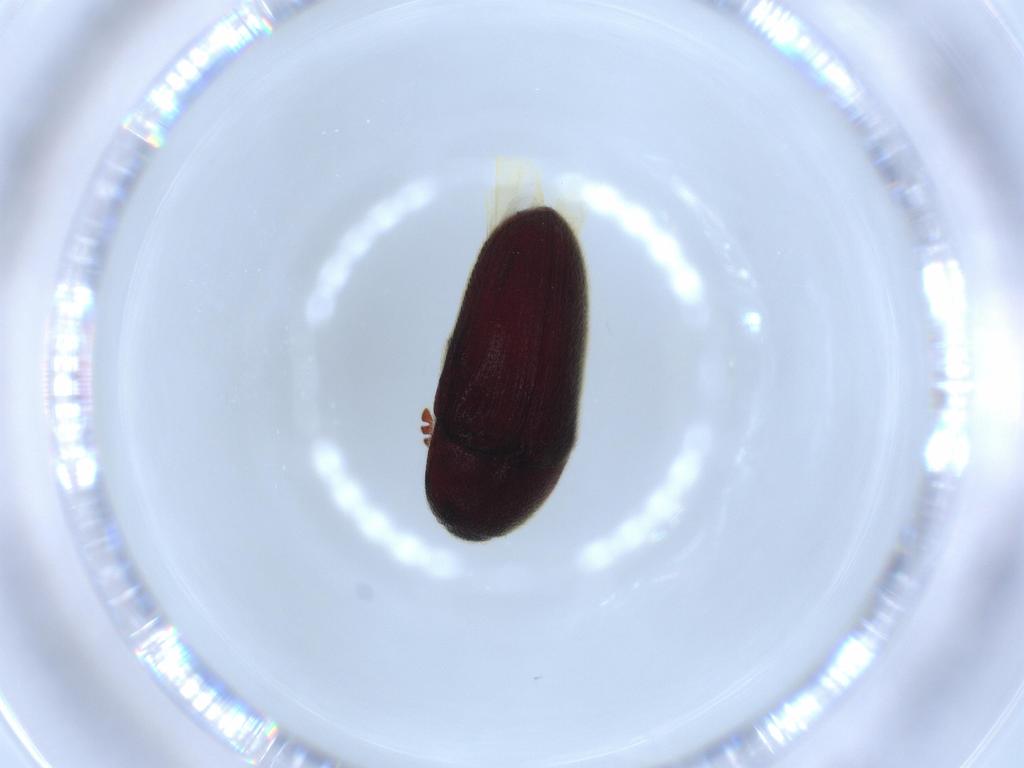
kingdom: Animalia
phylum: Arthropoda
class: Insecta
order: Coleoptera
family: Throscidae
